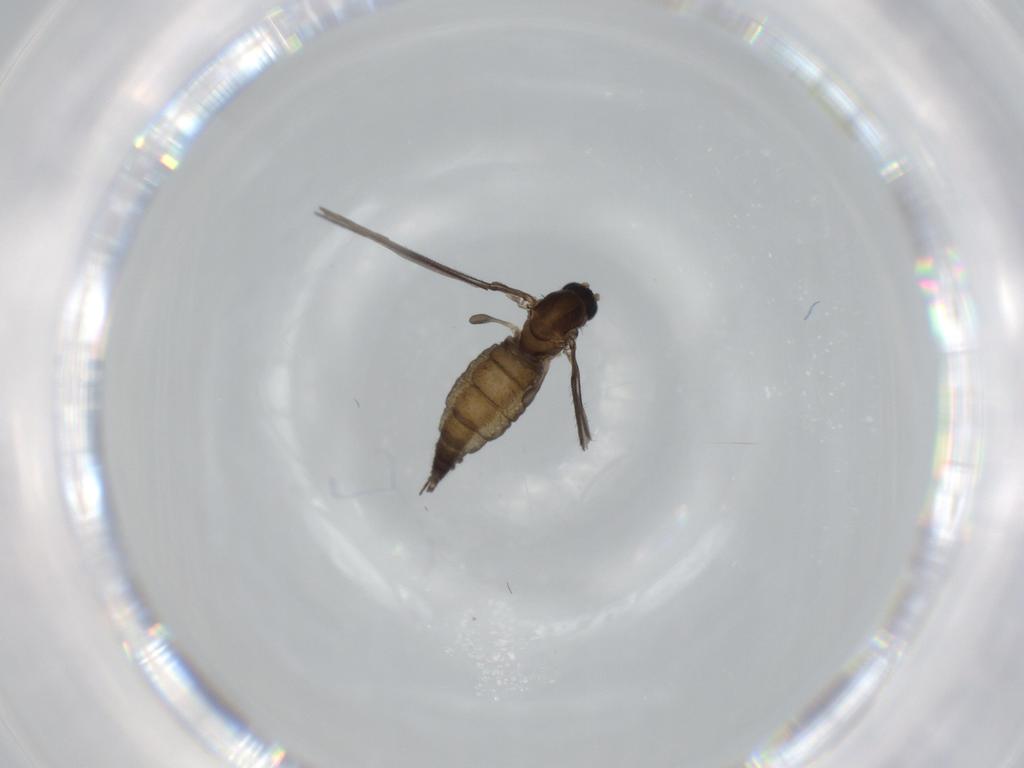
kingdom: Animalia
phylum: Arthropoda
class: Insecta
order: Diptera
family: Sciaridae
